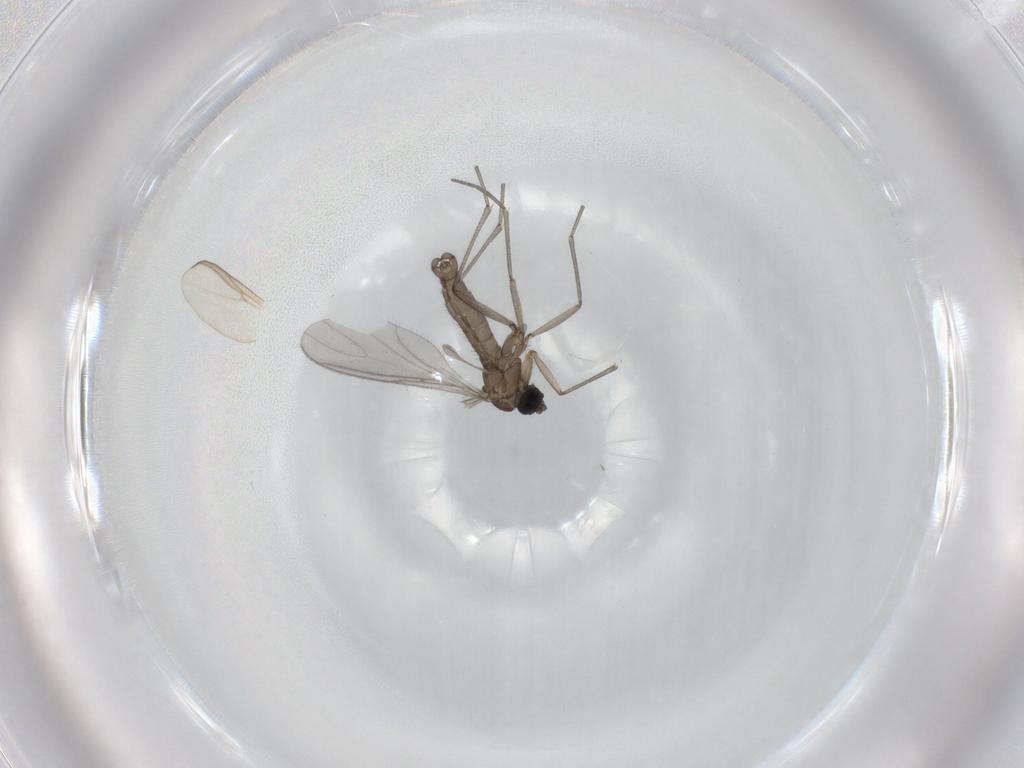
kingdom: Animalia
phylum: Arthropoda
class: Insecta
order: Diptera
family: Sciaridae
